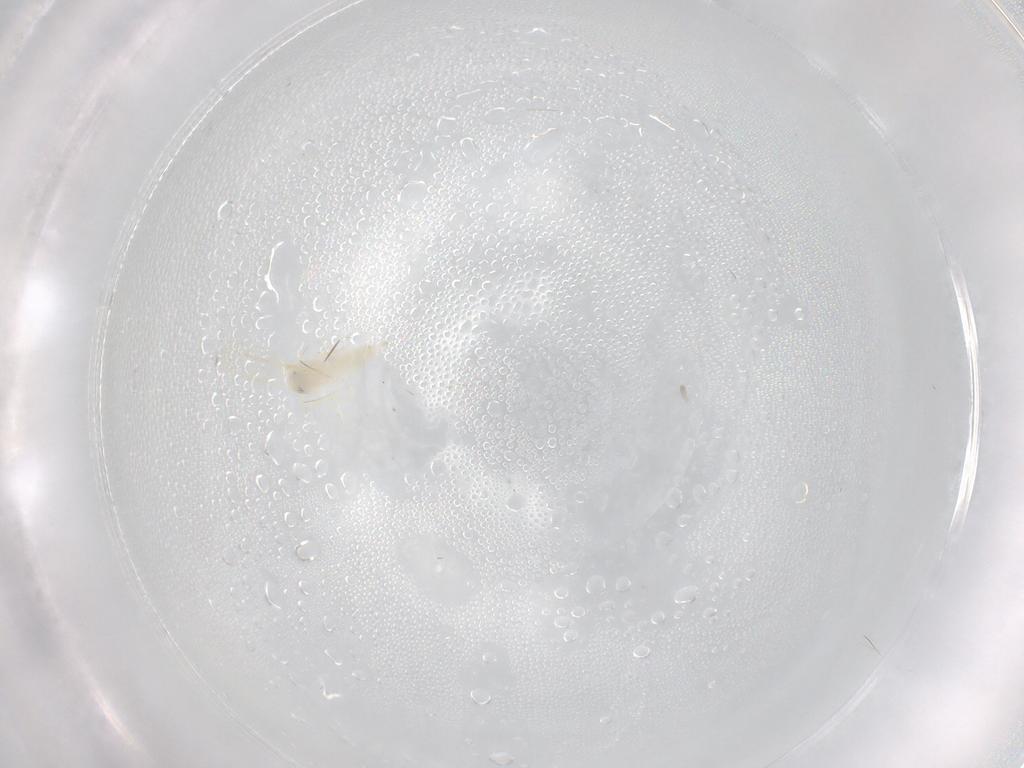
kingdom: Animalia
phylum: Arthropoda
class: Insecta
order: Hemiptera
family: Aleyrodidae
